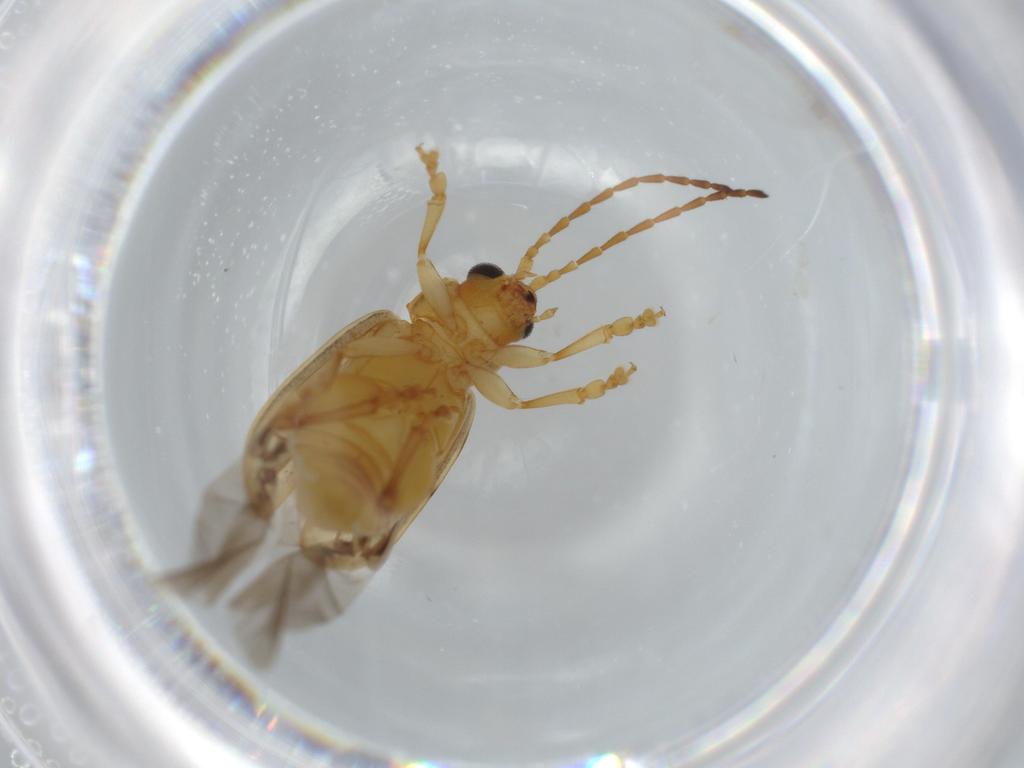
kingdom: Animalia
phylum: Arthropoda
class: Insecta
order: Coleoptera
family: Chrysomelidae
